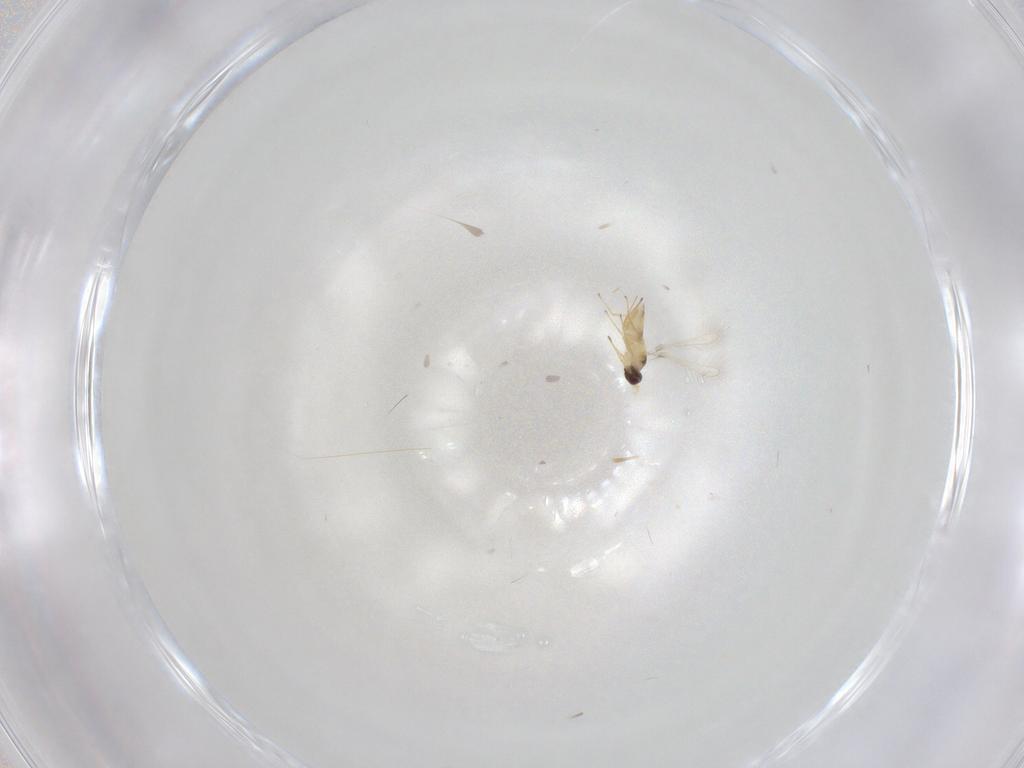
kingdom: Animalia
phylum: Arthropoda
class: Insecta
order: Hymenoptera
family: Mymaridae
